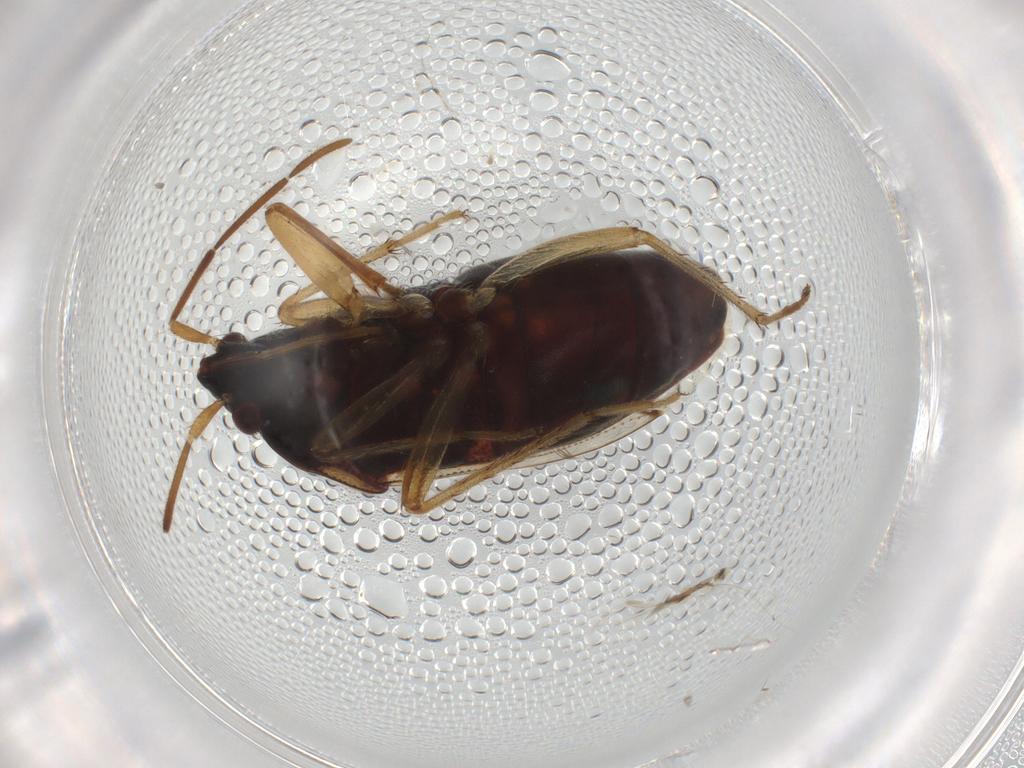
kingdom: Animalia
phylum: Arthropoda
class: Insecta
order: Hemiptera
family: Rhyparochromidae
